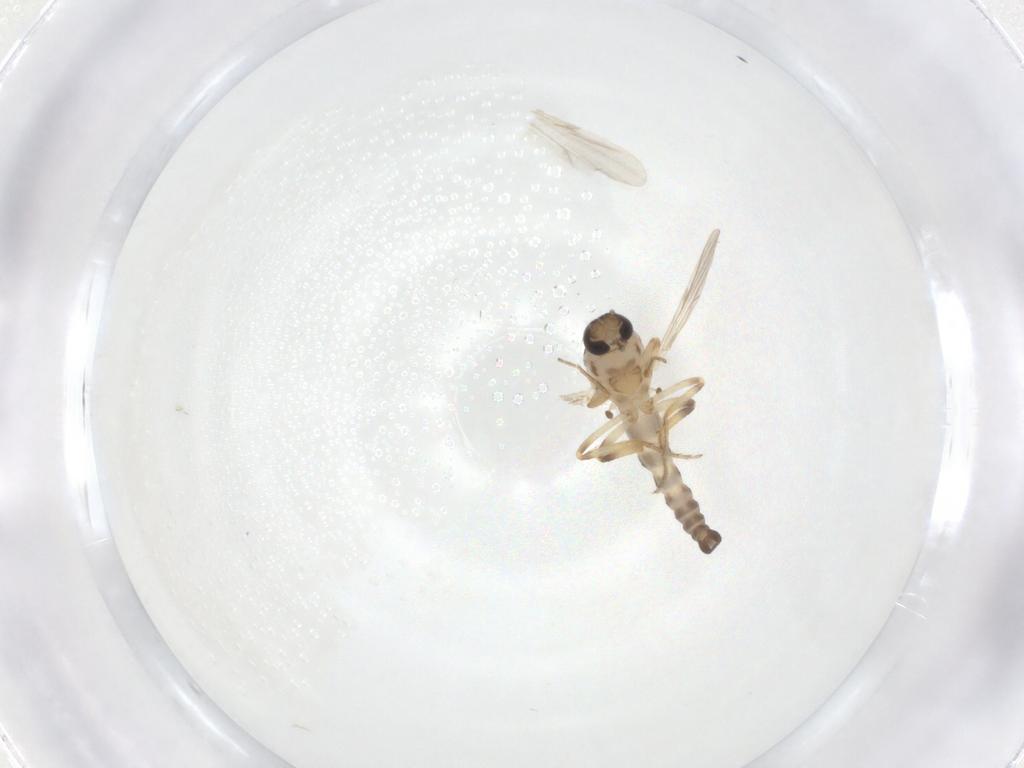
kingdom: Animalia
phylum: Arthropoda
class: Insecta
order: Diptera
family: Ceratopogonidae
